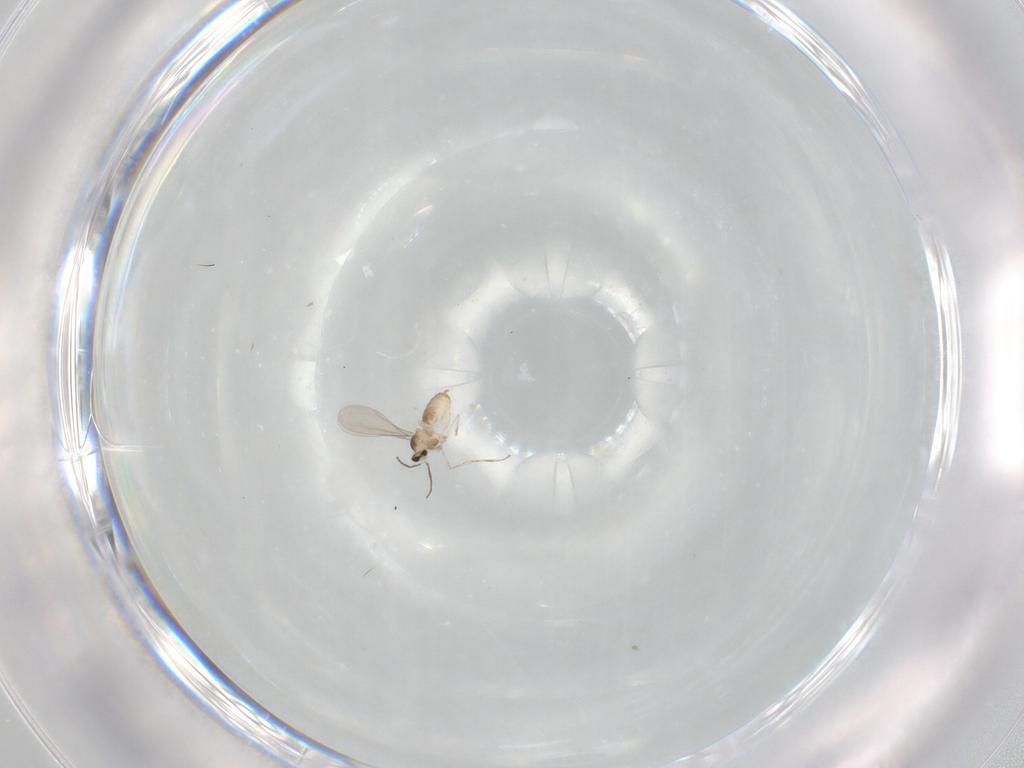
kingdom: Animalia
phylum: Arthropoda
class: Insecta
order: Diptera
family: Cecidomyiidae
